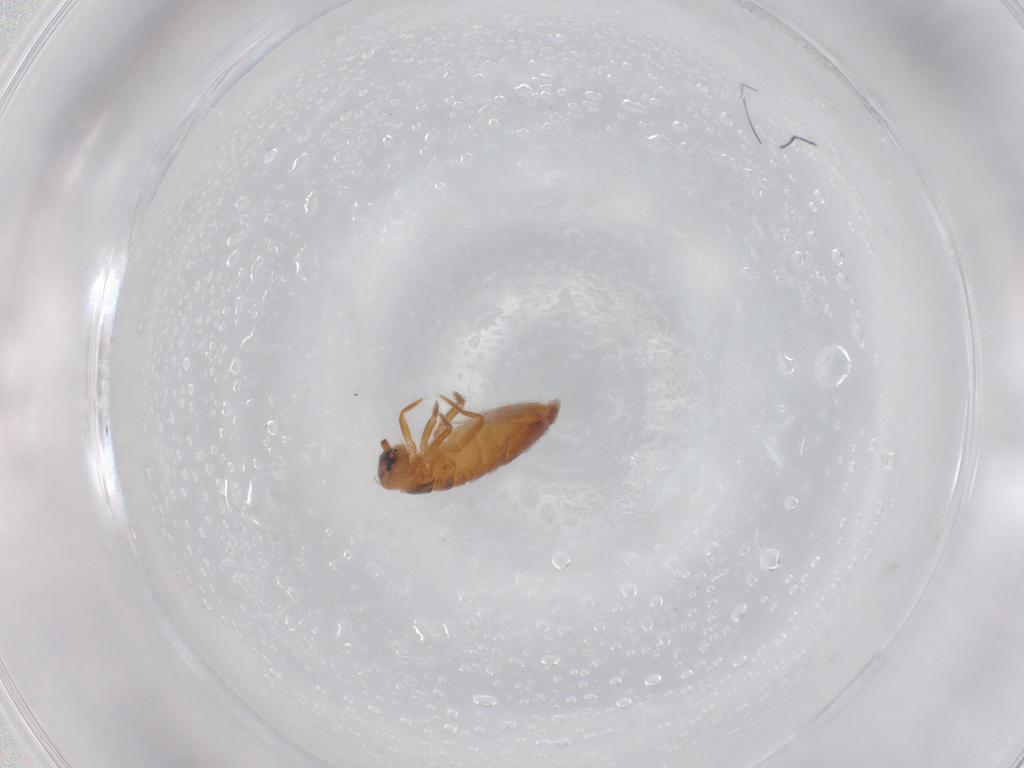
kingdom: Animalia
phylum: Arthropoda
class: Collembola
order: Entomobryomorpha
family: Entomobryidae
